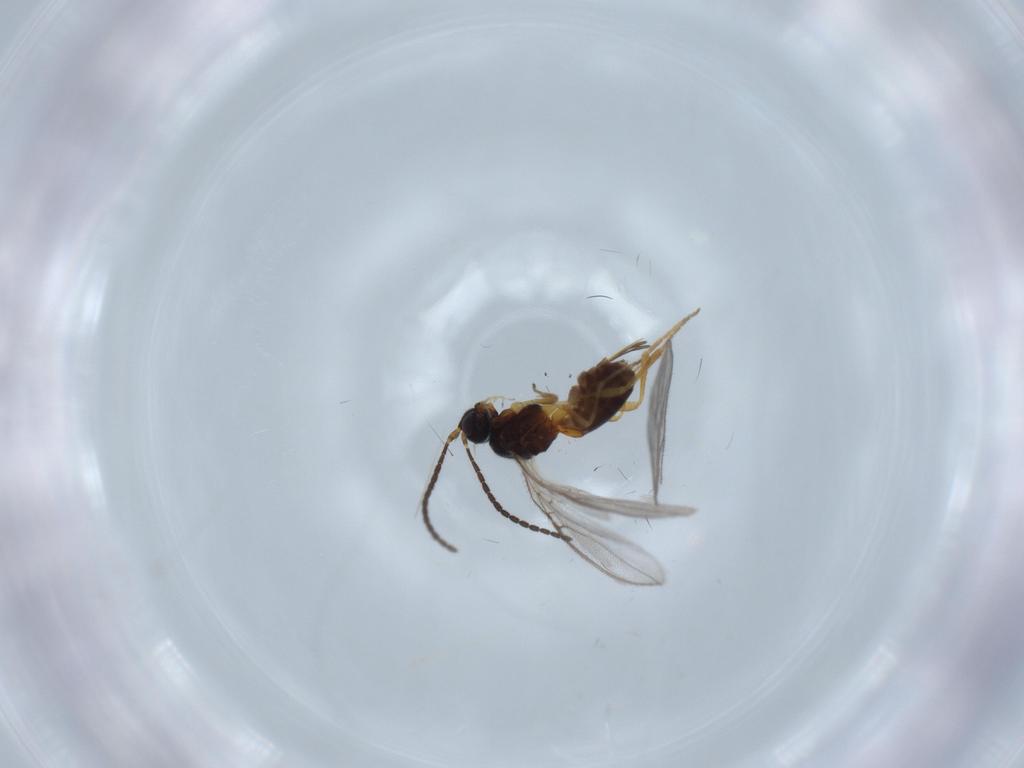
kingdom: Animalia
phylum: Arthropoda
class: Insecta
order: Hymenoptera
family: Braconidae
